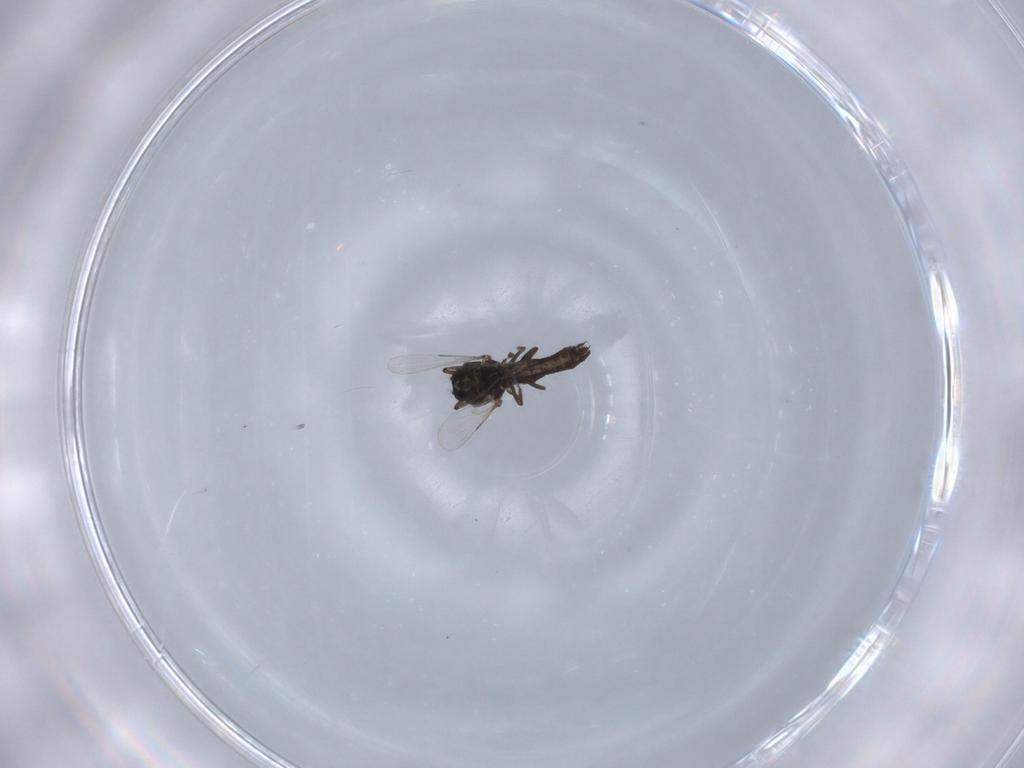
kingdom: Animalia
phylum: Arthropoda
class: Insecta
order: Diptera
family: Ceratopogonidae
